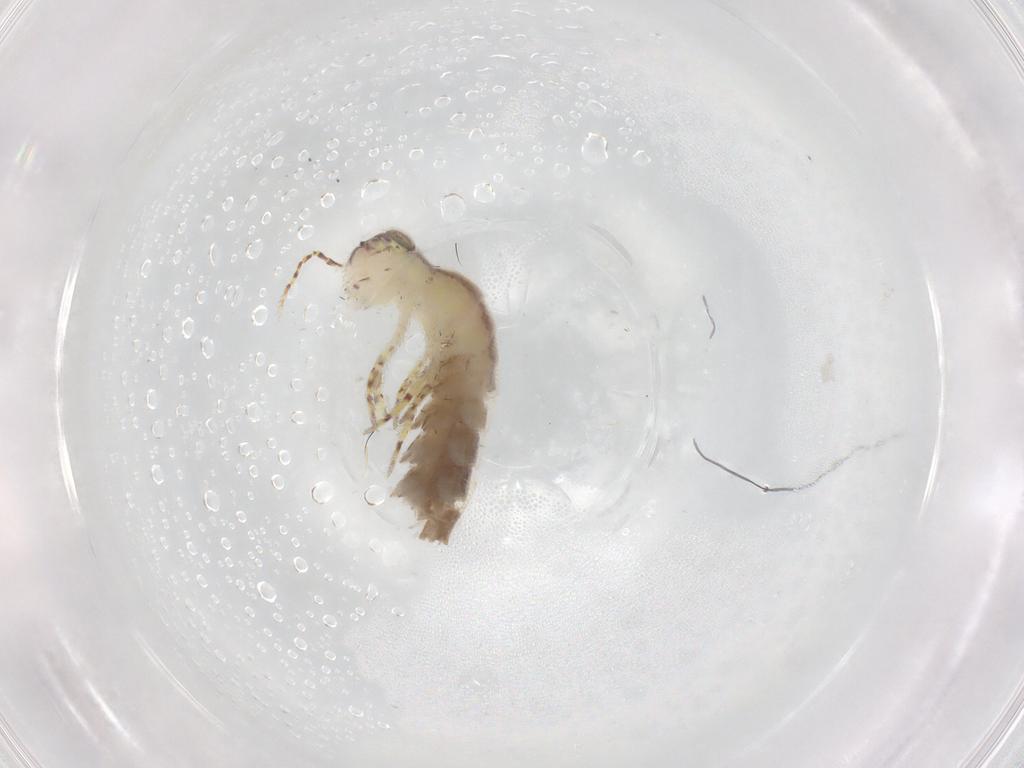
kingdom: Animalia
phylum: Arthropoda
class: Insecta
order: Archaeognatha
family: Machilidae
